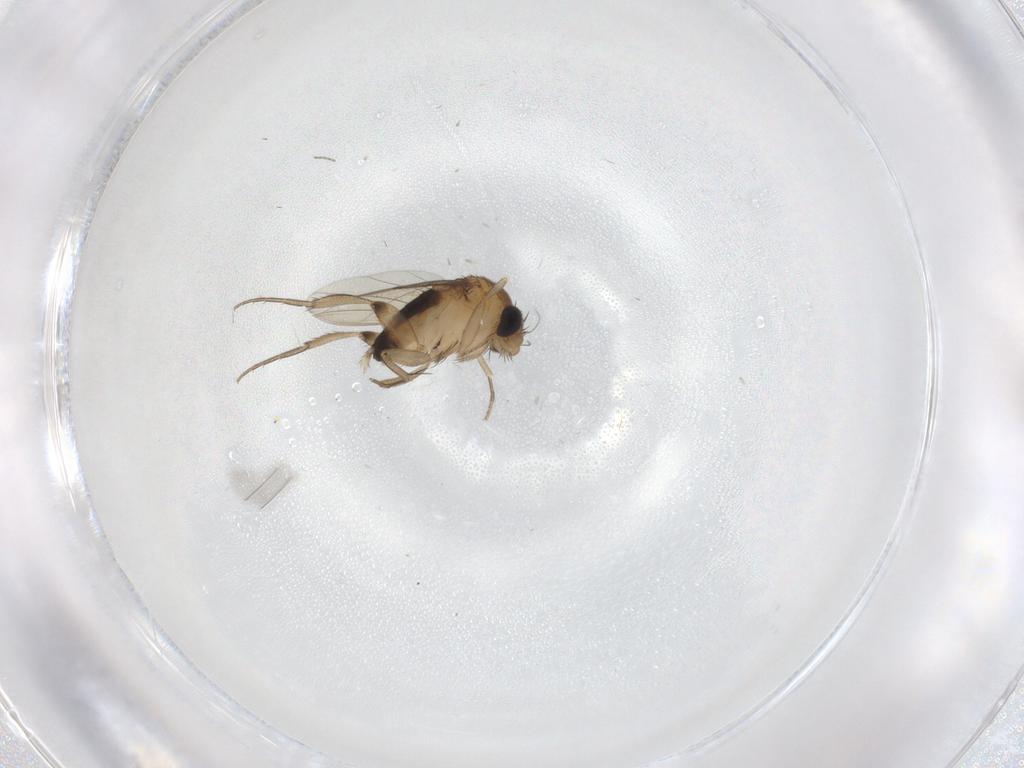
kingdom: Animalia
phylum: Arthropoda
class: Insecta
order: Diptera
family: Phoridae
